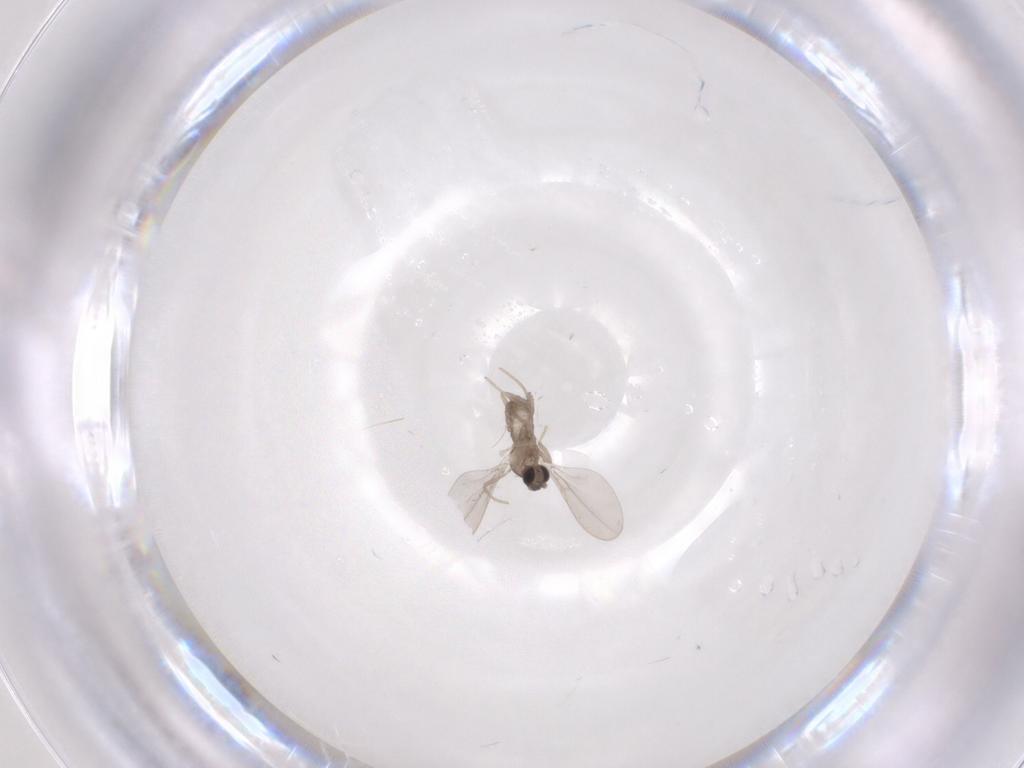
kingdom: Animalia
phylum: Arthropoda
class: Insecta
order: Diptera
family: Cecidomyiidae
